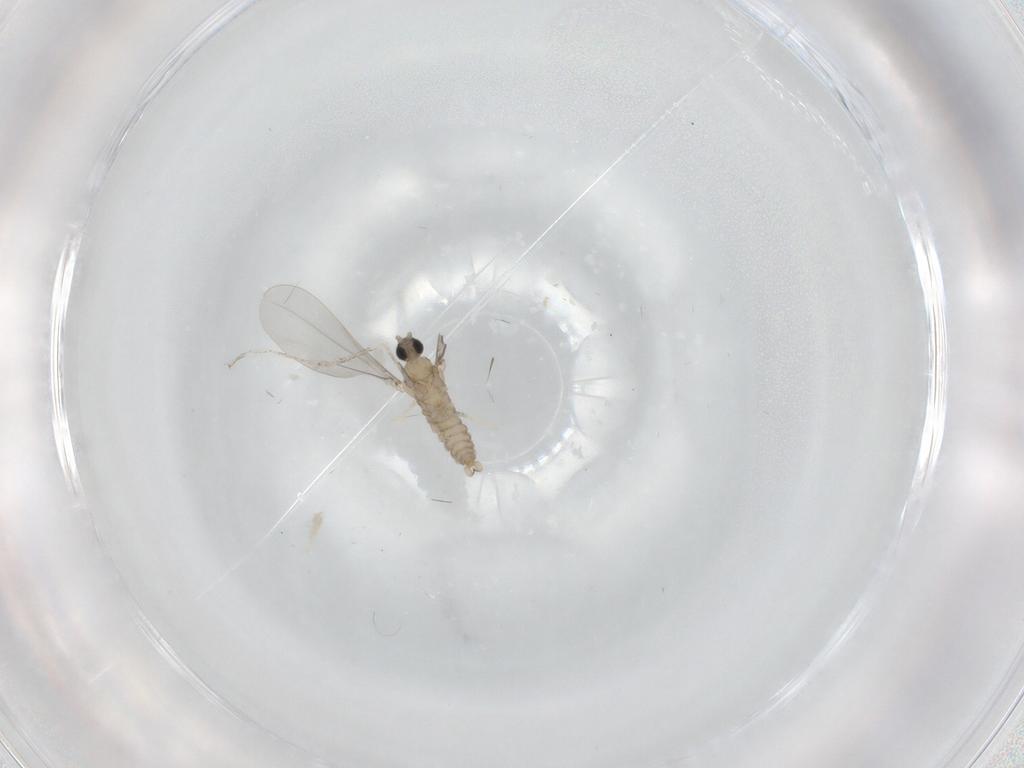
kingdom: Animalia
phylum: Arthropoda
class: Insecta
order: Diptera
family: Cecidomyiidae
